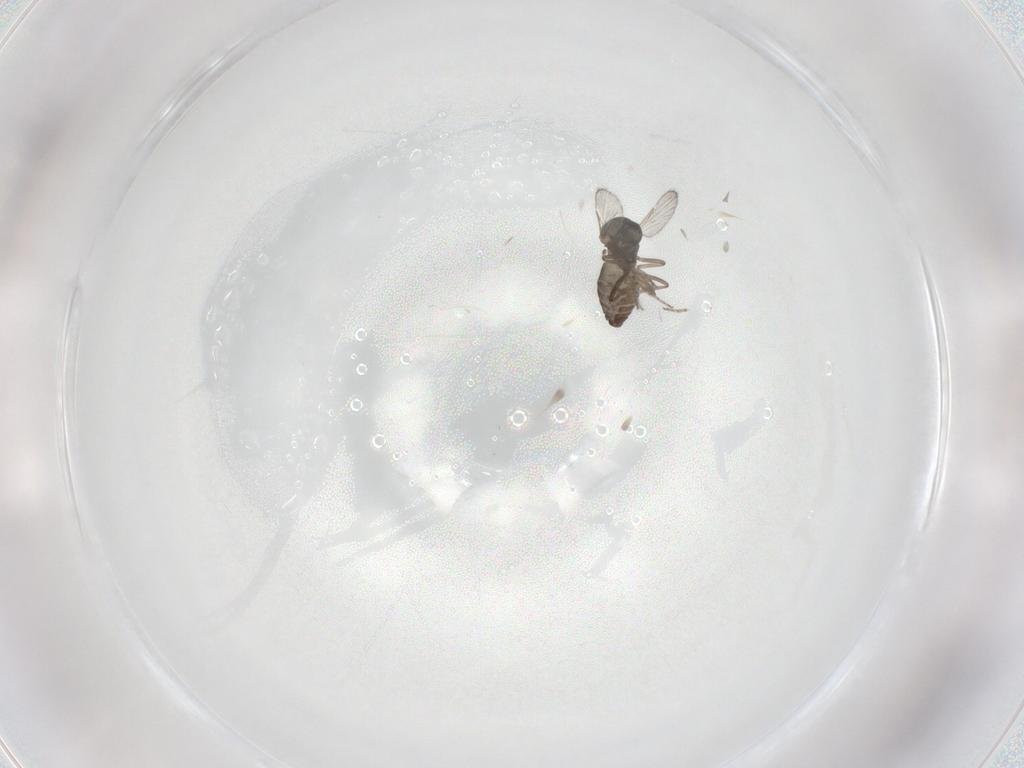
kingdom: Animalia
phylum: Arthropoda
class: Insecta
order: Diptera
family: Ceratopogonidae
